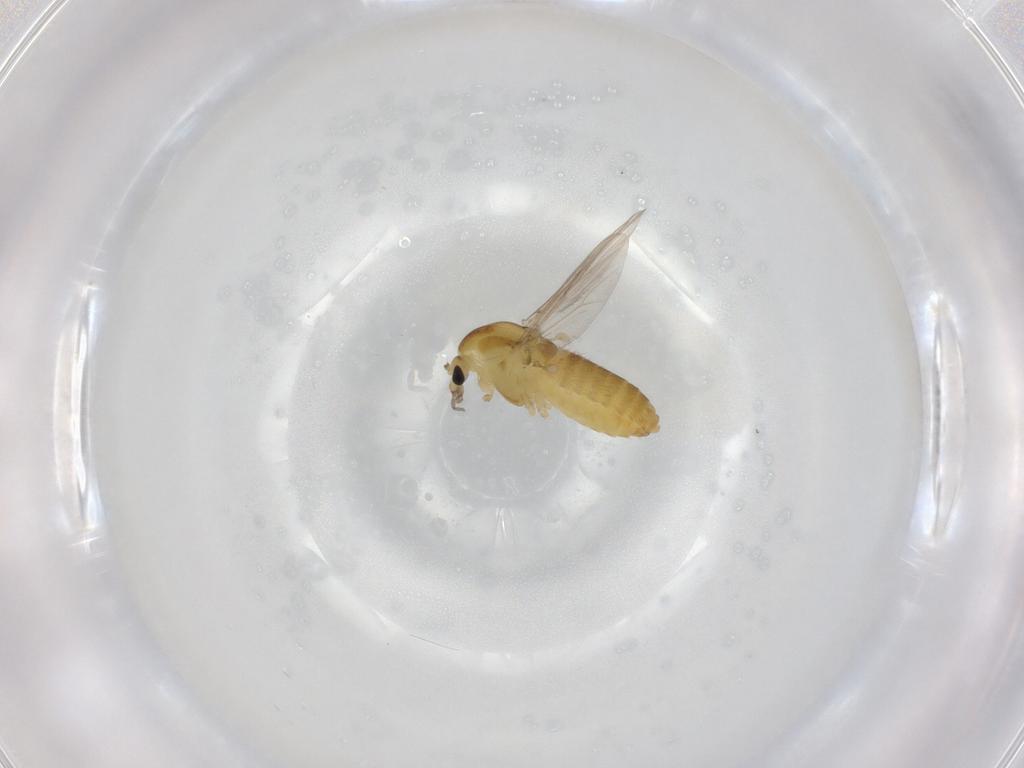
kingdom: Animalia
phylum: Arthropoda
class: Insecta
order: Diptera
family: Chironomidae
